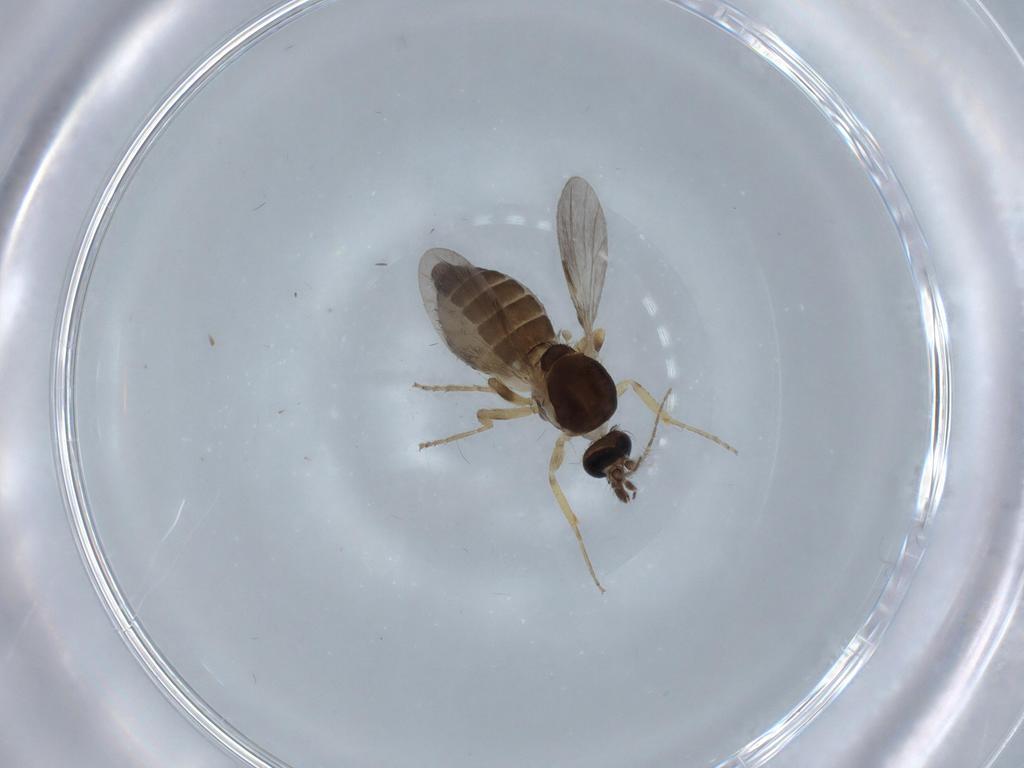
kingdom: Animalia
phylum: Arthropoda
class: Insecta
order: Diptera
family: Ceratopogonidae
